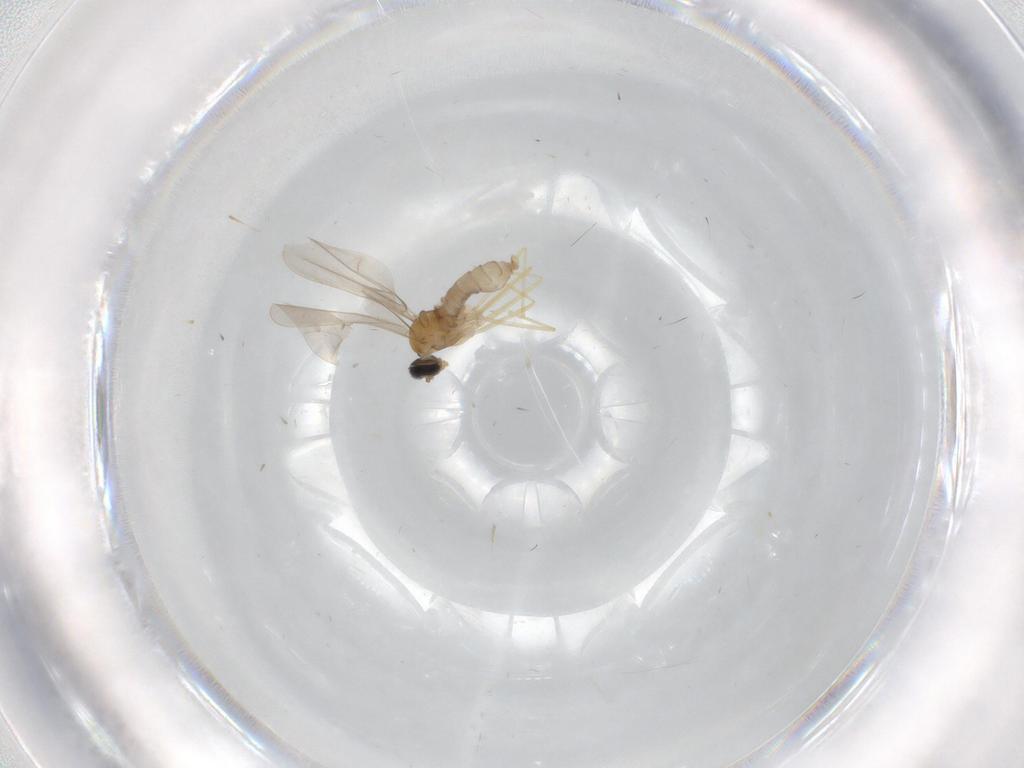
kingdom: Animalia
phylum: Arthropoda
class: Insecta
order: Diptera
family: Cecidomyiidae
